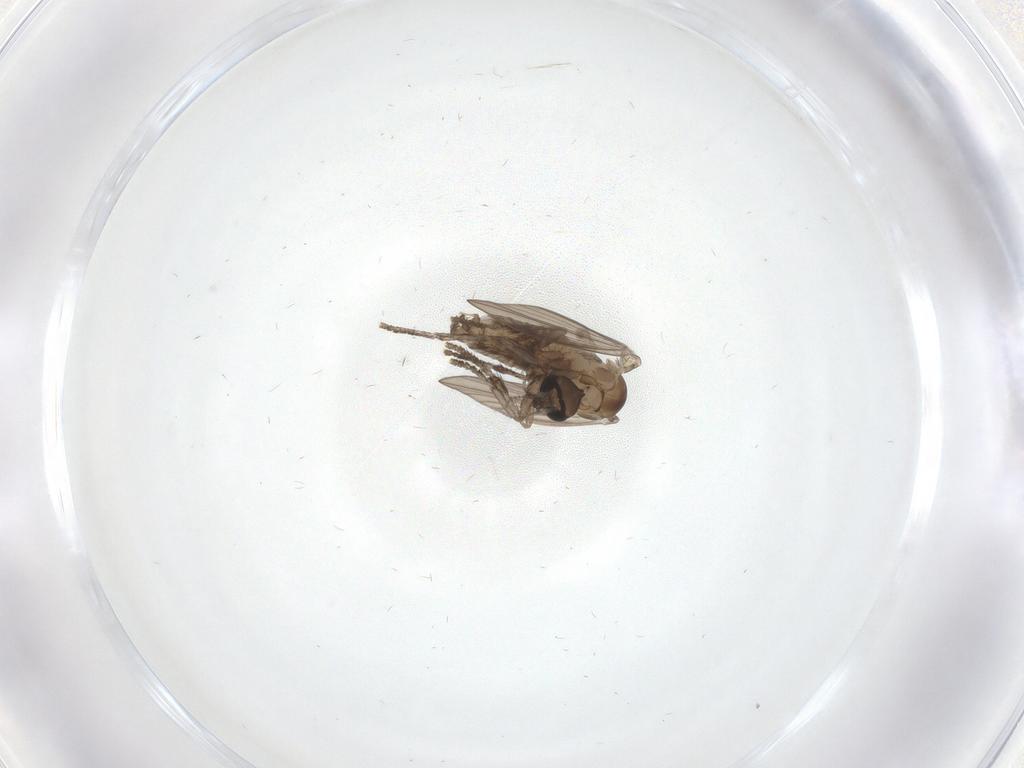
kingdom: Animalia
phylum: Arthropoda
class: Insecta
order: Diptera
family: Psychodidae
